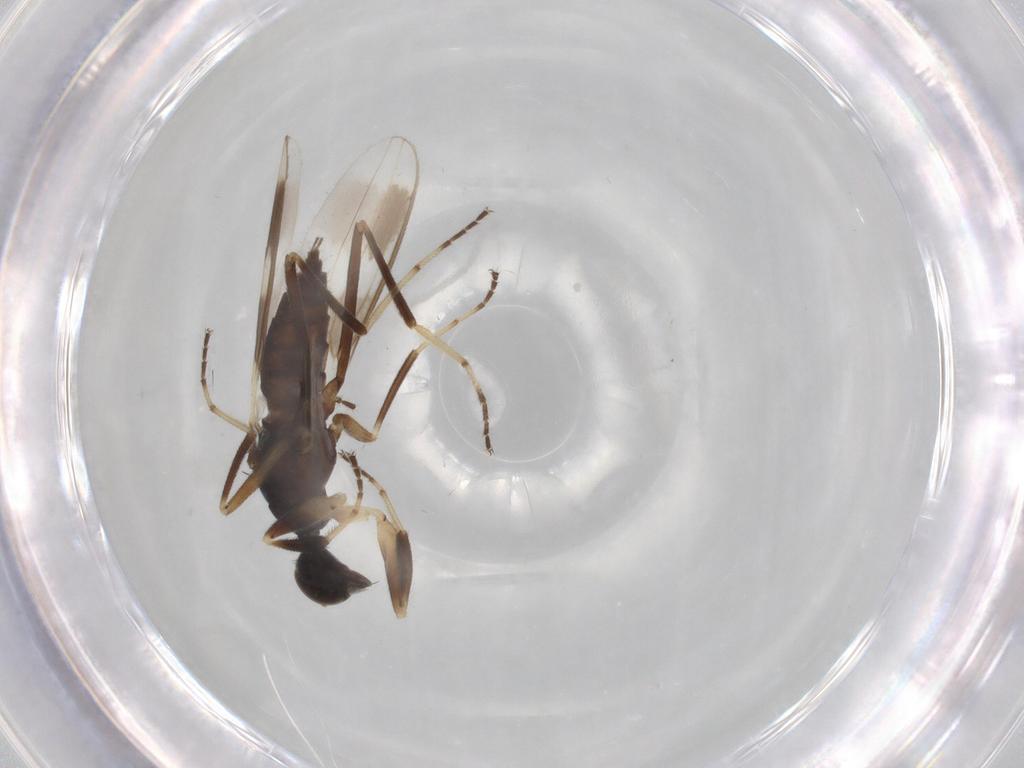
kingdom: Animalia
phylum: Arthropoda
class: Insecta
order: Diptera
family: Hybotidae
